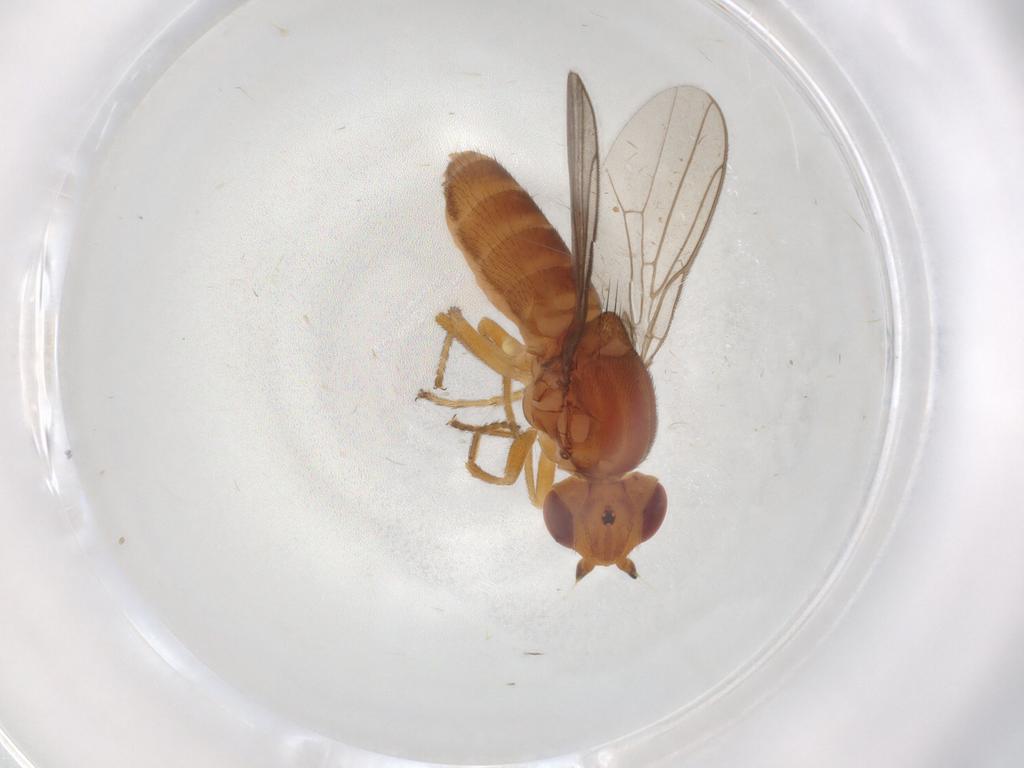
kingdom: Animalia
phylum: Arthropoda
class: Insecta
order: Diptera
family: Chloropidae
